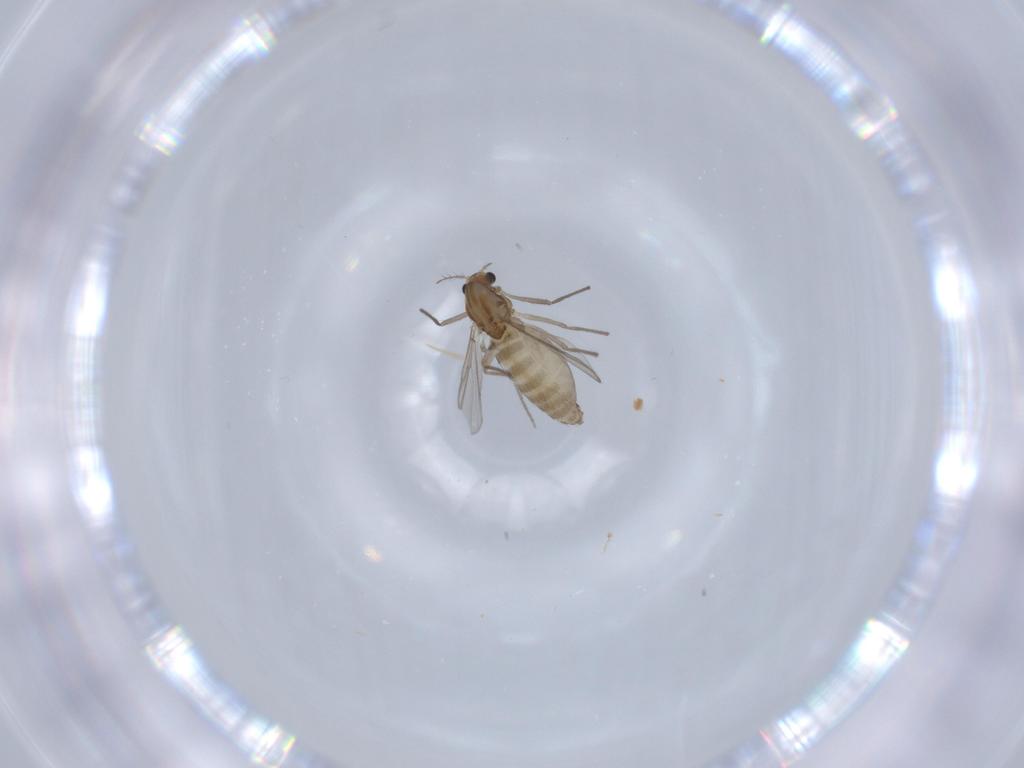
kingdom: Animalia
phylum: Arthropoda
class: Insecta
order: Diptera
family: Chironomidae
